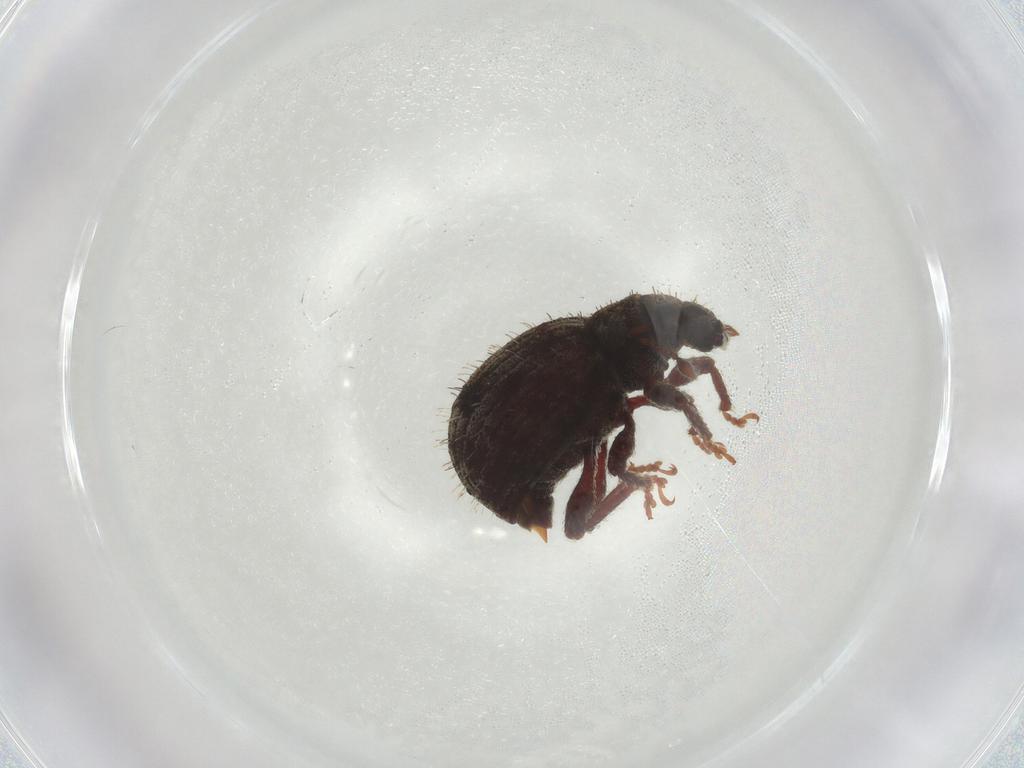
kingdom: Animalia
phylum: Arthropoda
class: Insecta
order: Coleoptera
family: Curculionidae
